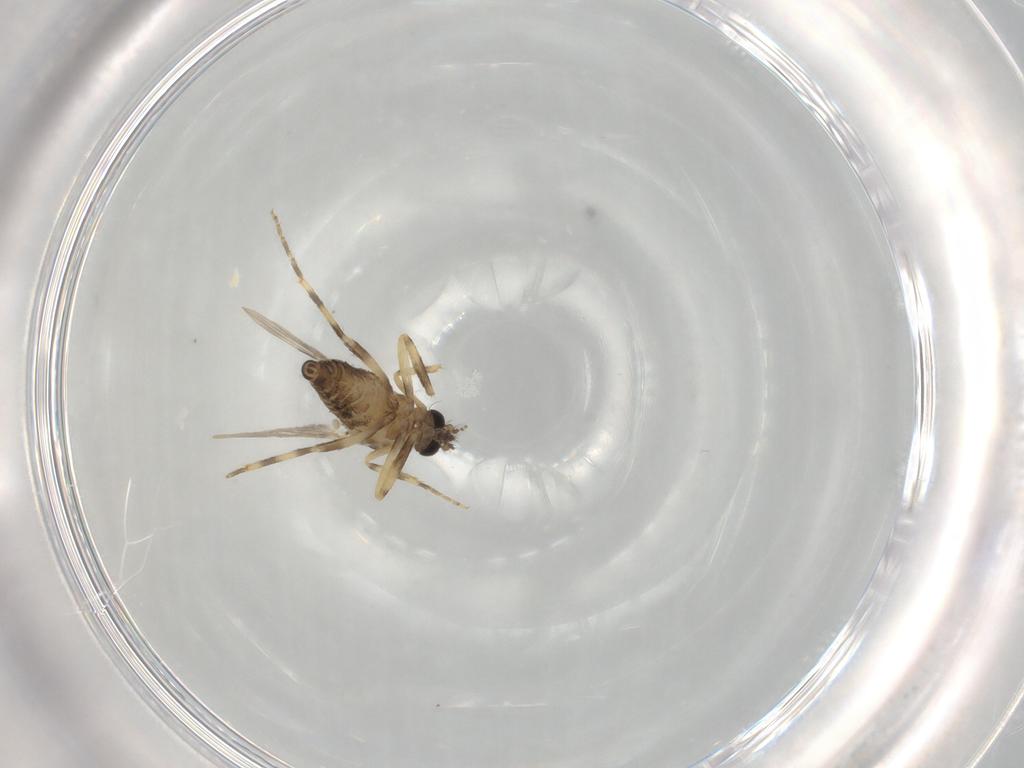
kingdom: Animalia
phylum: Arthropoda
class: Insecta
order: Diptera
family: Ceratopogonidae
